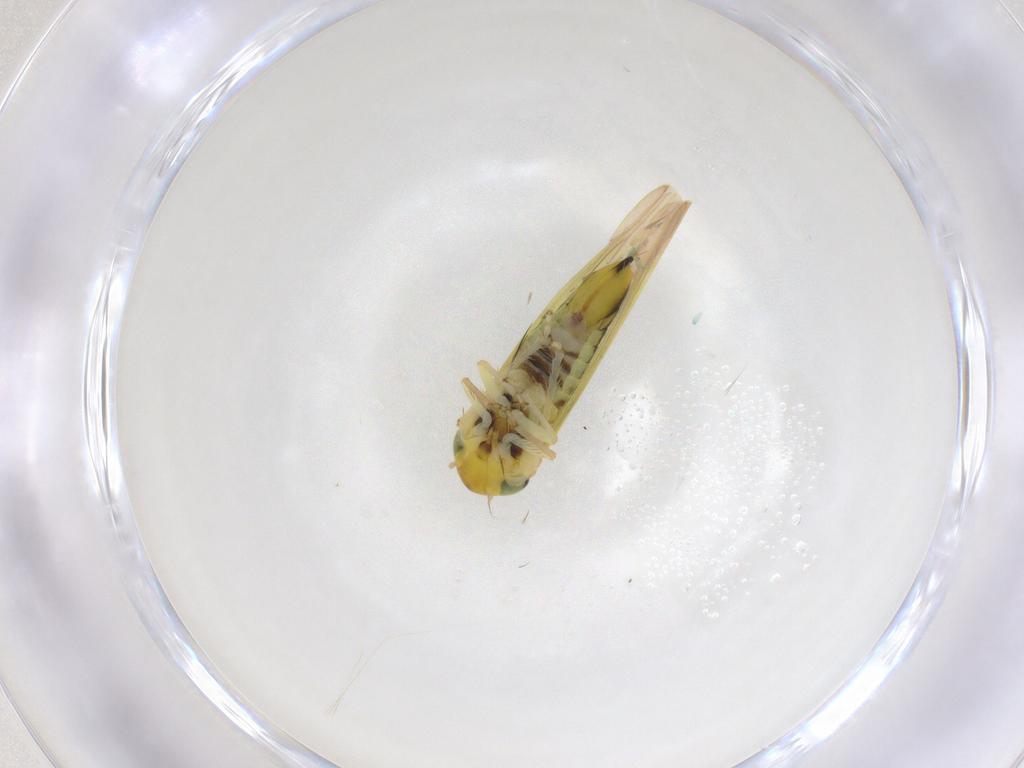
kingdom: Animalia
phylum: Arthropoda
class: Insecta
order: Hemiptera
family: Cicadellidae
